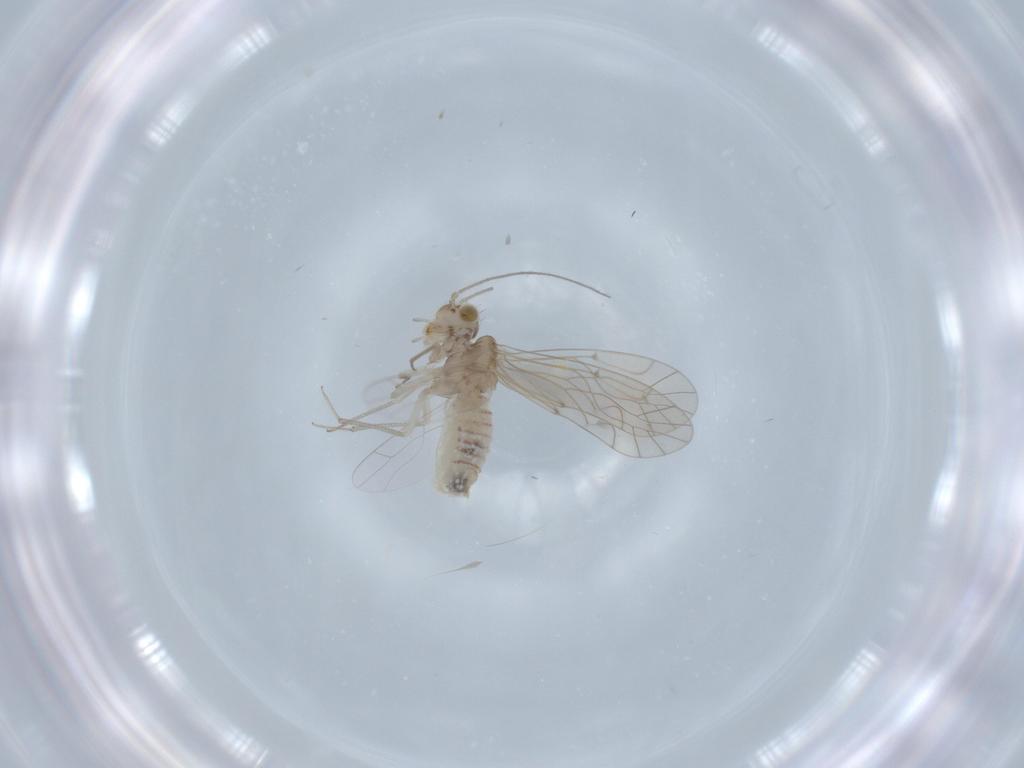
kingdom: Animalia
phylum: Arthropoda
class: Insecta
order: Psocodea
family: Lachesillidae
